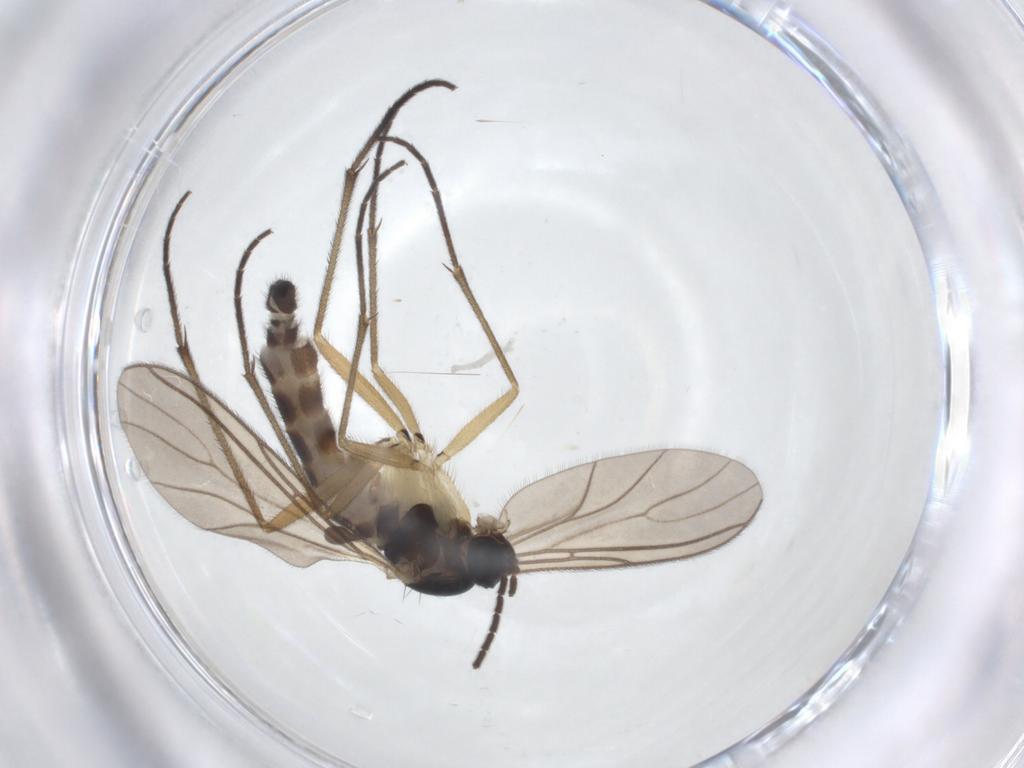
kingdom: Animalia
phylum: Arthropoda
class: Insecta
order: Diptera
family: Sciaridae
